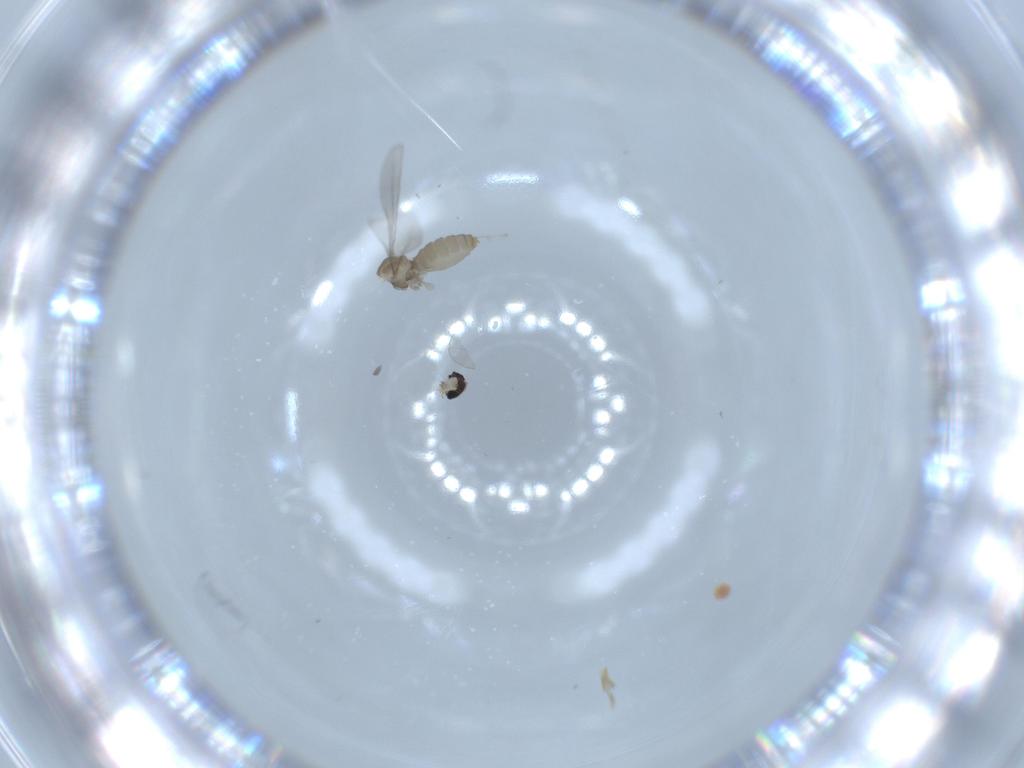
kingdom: Animalia
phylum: Arthropoda
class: Insecta
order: Diptera
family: Cecidomyiidae
